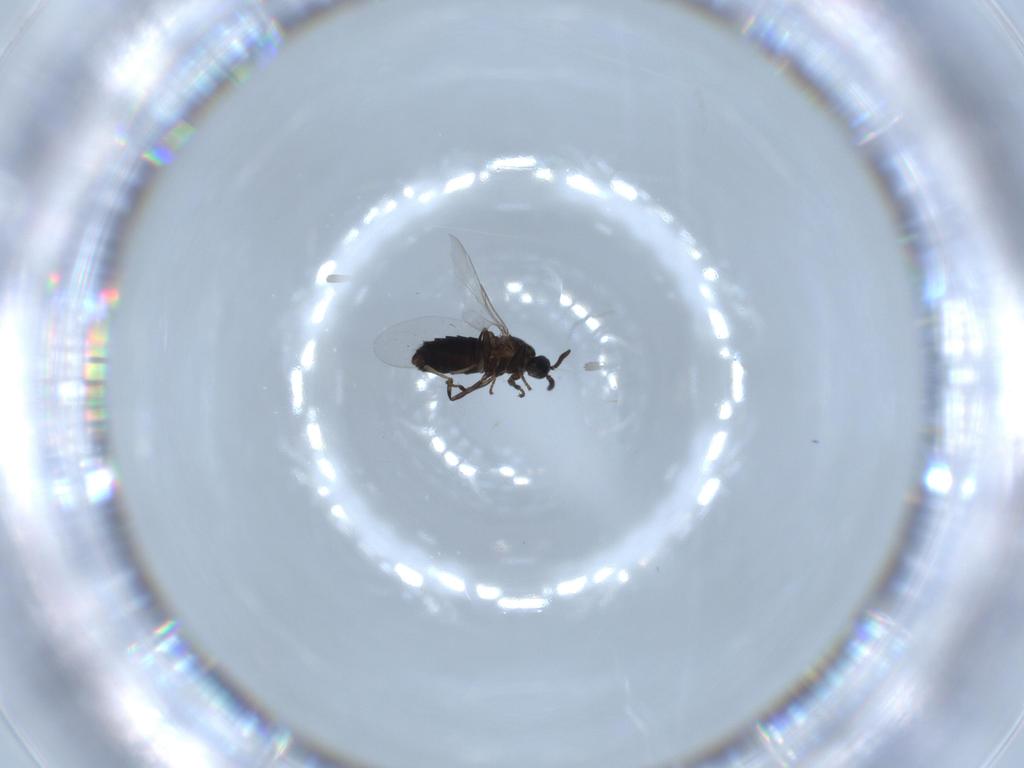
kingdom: Animalia
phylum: Arthropoda
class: Insecta
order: Diptera
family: Scatopsidae
